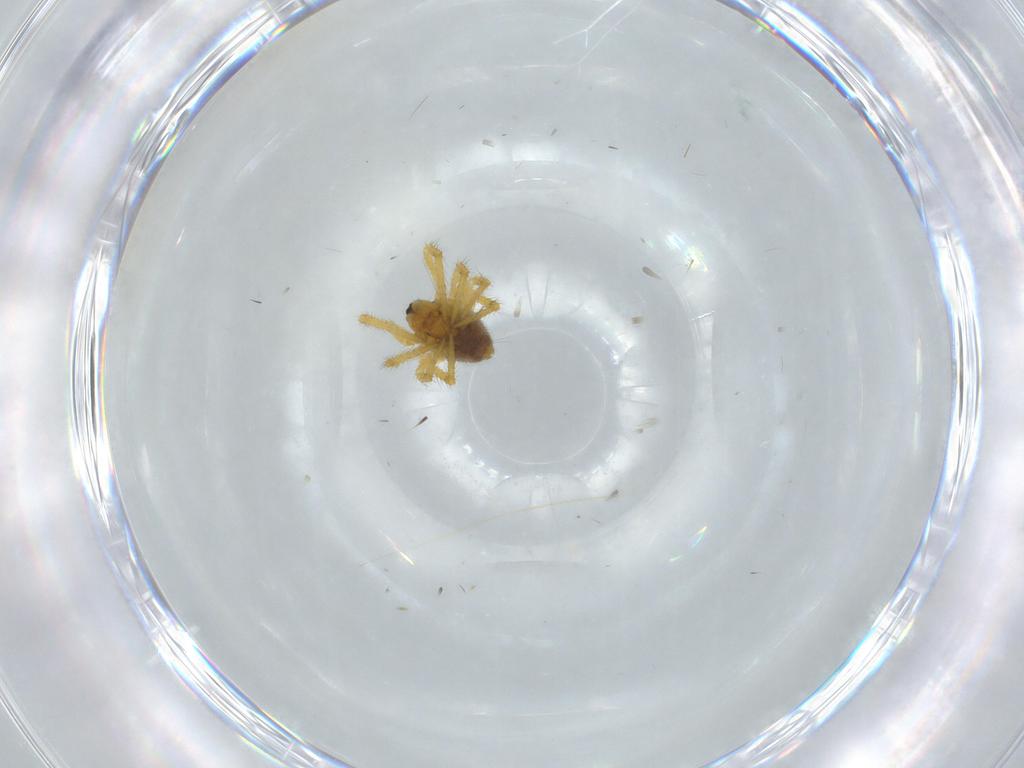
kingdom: Animalia
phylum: Arthropoda
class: Arachnida
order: Araneae
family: Theridiidae
